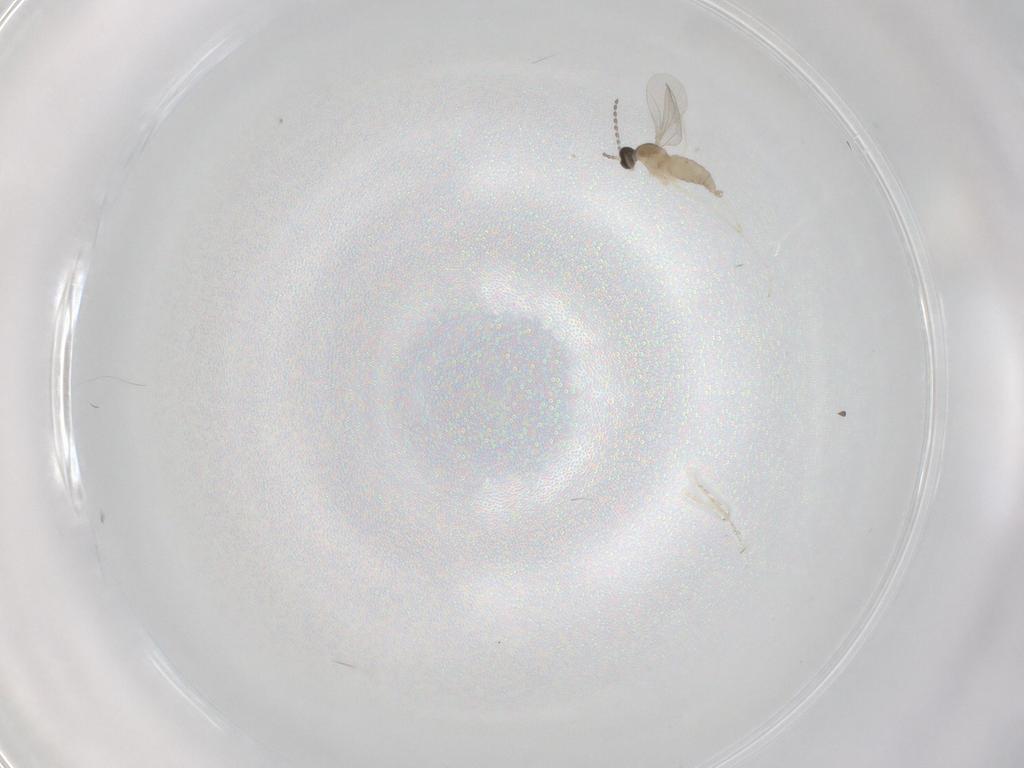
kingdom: Animalia
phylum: Arthropoda
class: Insecta
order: Diptera
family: Cecidomyiidae
